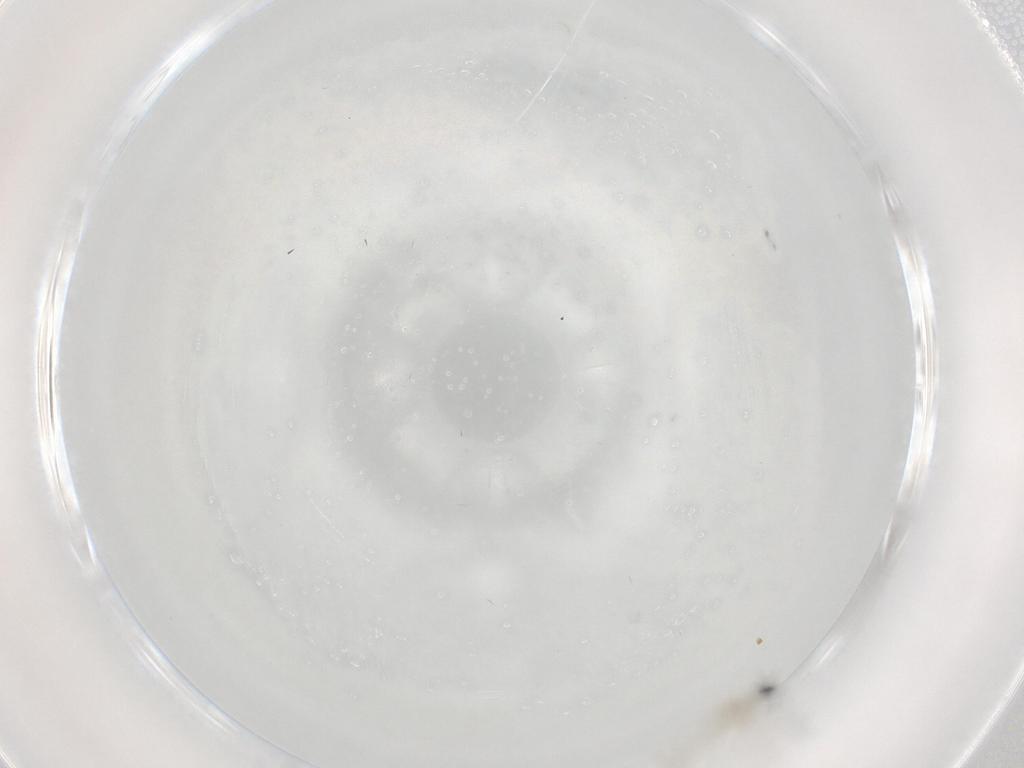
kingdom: Animalia
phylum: Arthropoda
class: Insecta
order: Diptera
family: Cecidomyiidae
